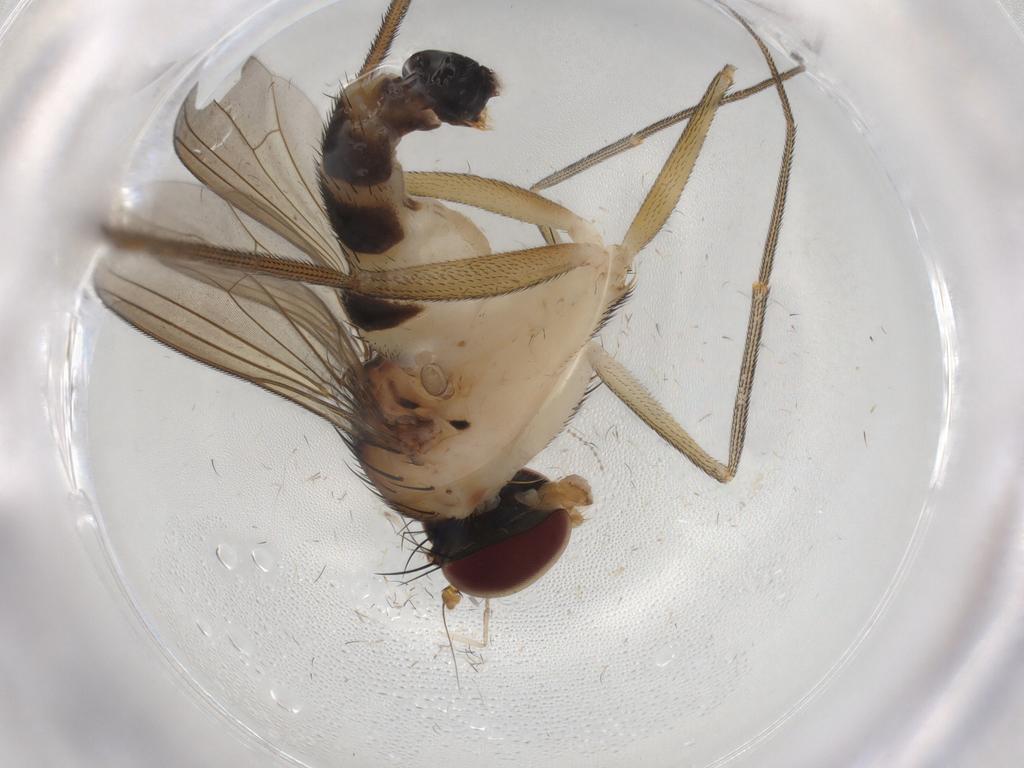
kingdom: Animalia
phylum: Arthropoda
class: Insecta
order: Diptera
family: Dolichopodidae
